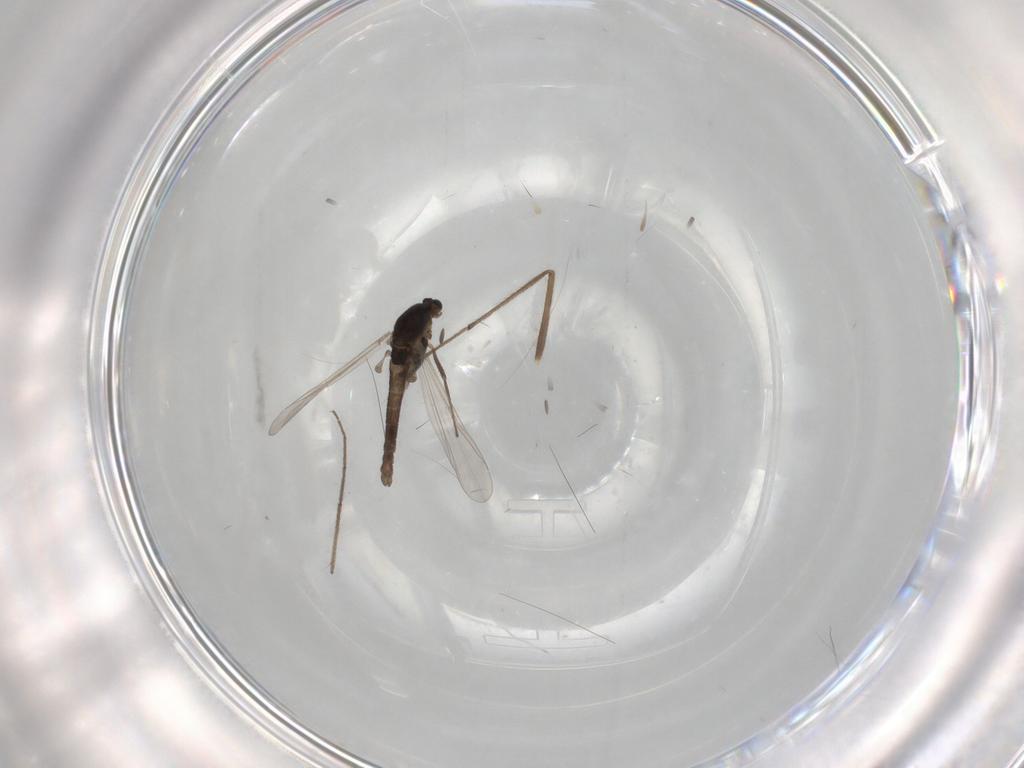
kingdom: Animalia
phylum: Arthropoda
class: Insecta
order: Diptera
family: Chironomidae
